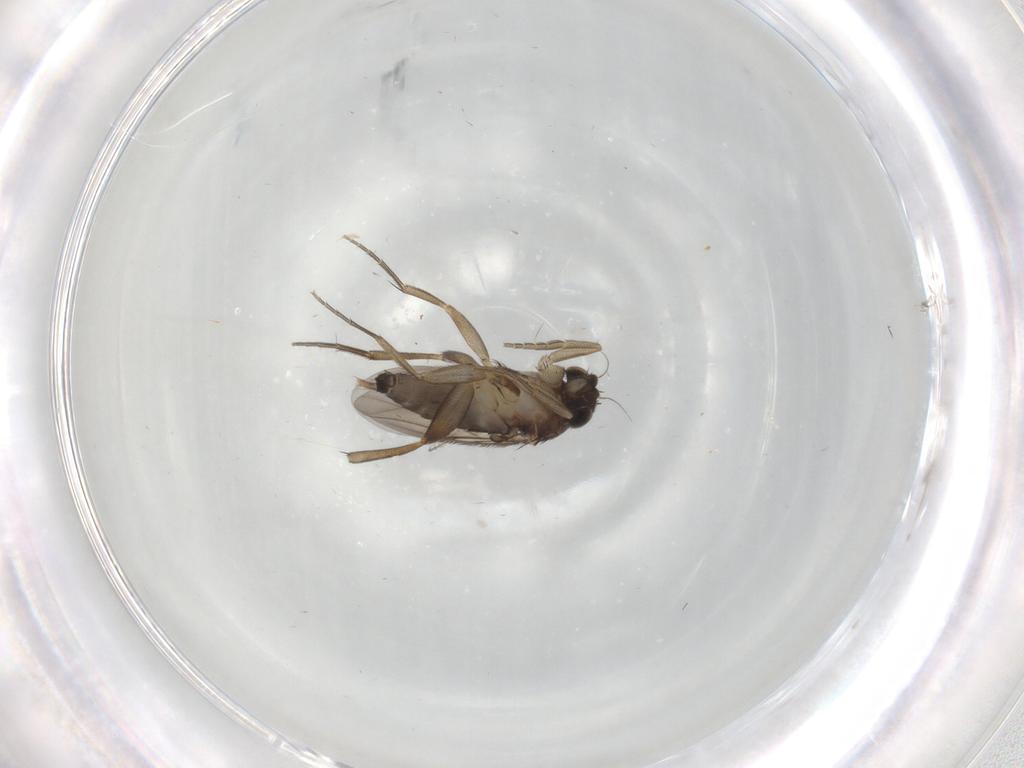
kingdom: Animalia
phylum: Arthropoda
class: Insecta
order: Diptera
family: Phoridae
